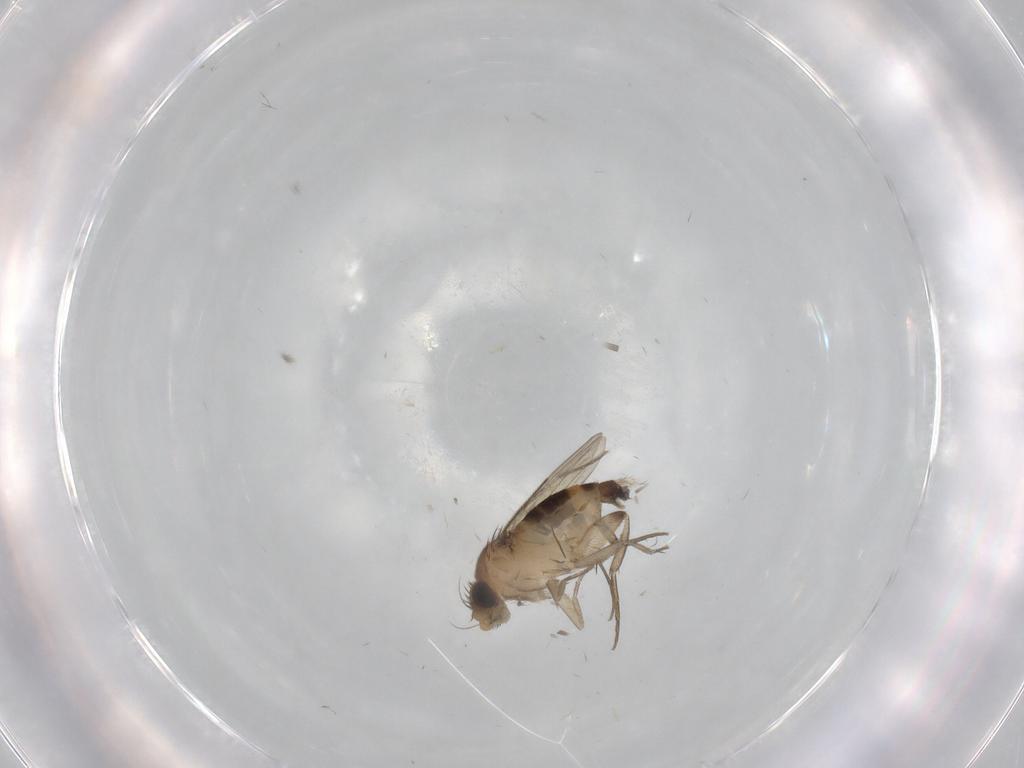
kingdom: Animalia
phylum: Arthropoda
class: Insecta
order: Diptera
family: Phoridae
